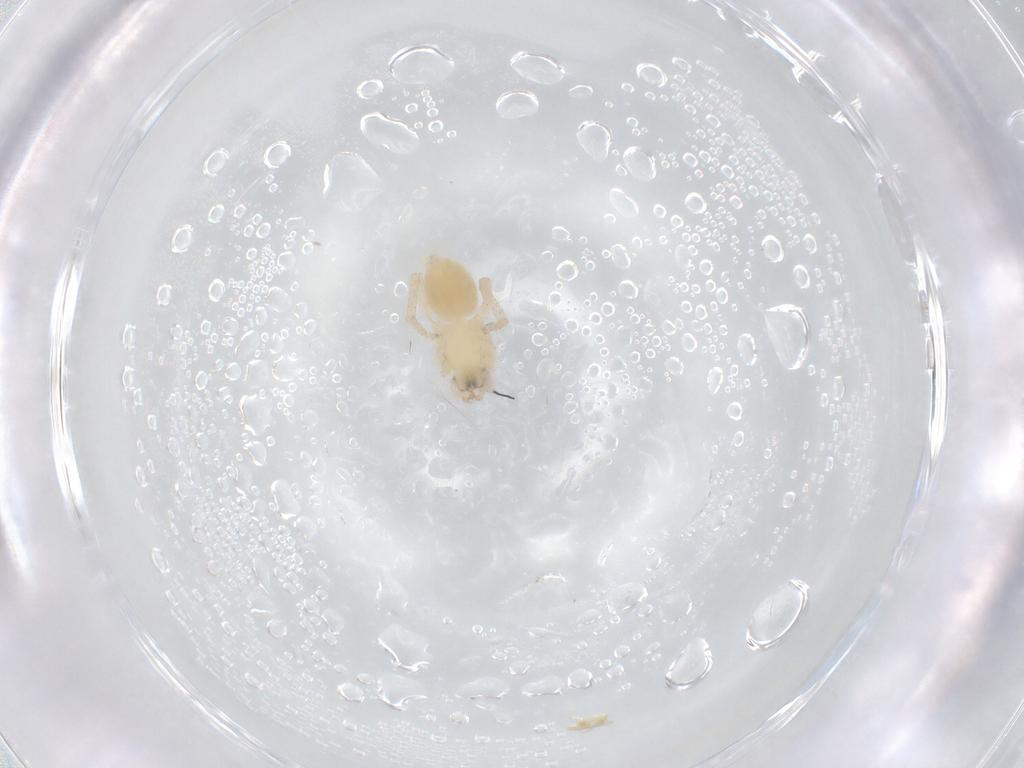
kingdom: Animalia
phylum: Arthropoda
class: Arachnida
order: Araneae
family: Anyphaenidae
